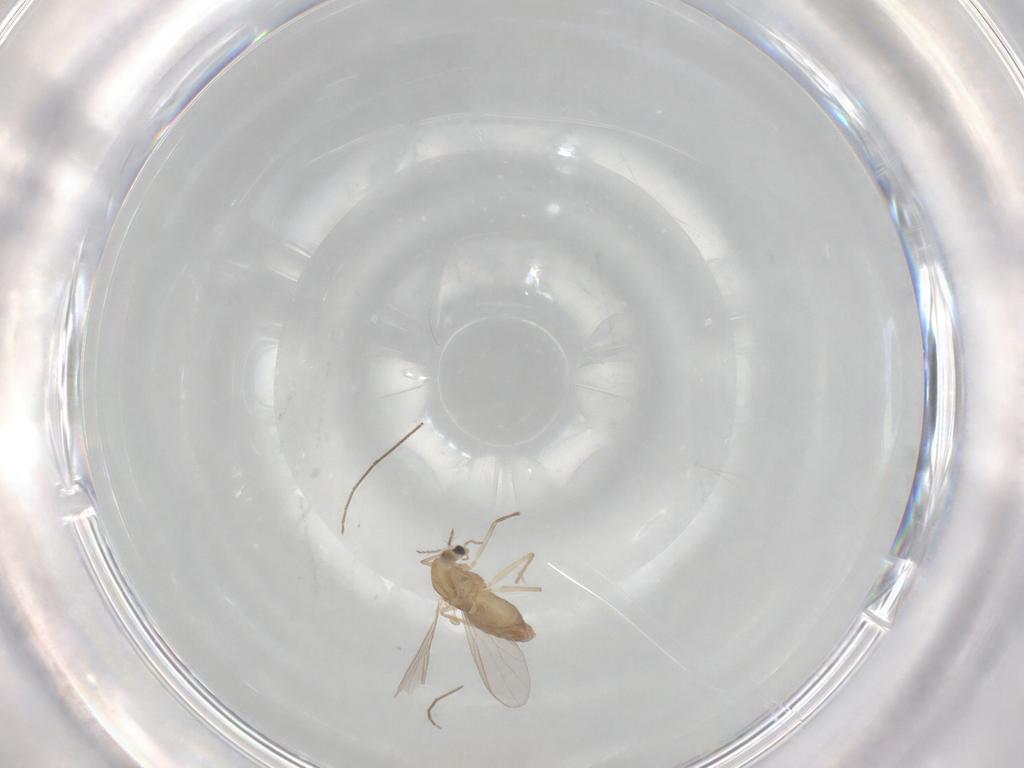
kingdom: Animalia
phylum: Arthropoda
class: Insecta
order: Diptera
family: Chironomidae
